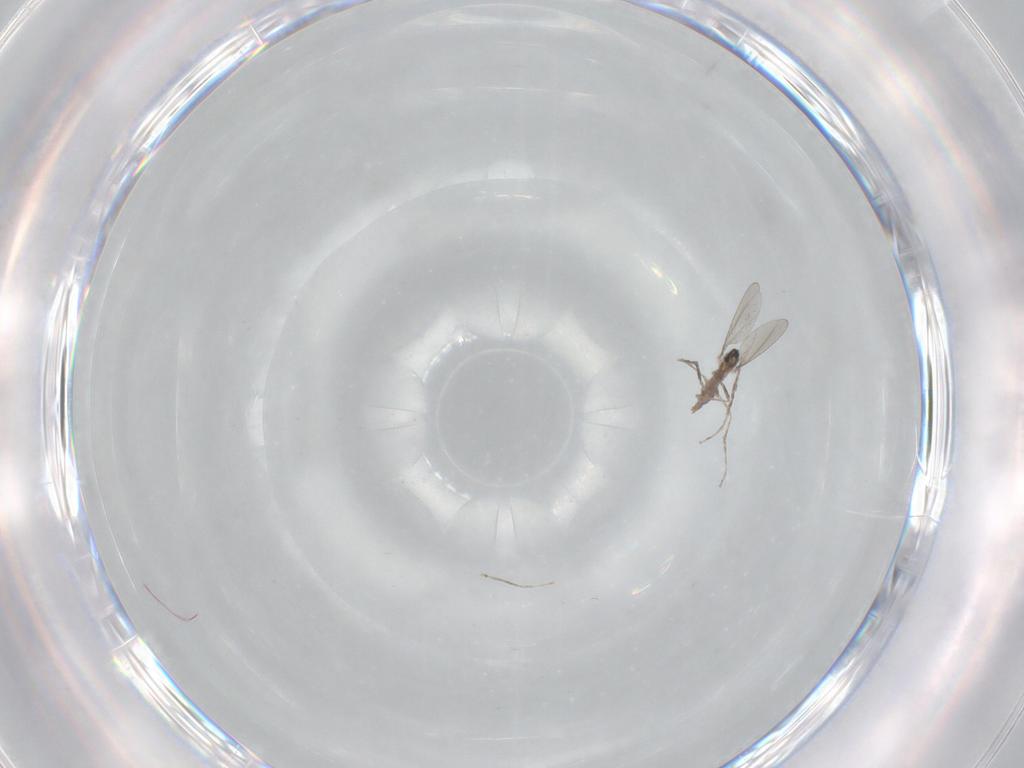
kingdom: Animalia
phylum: Arthropoda
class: Insecta
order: Diptera
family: Cecidomyiidae
